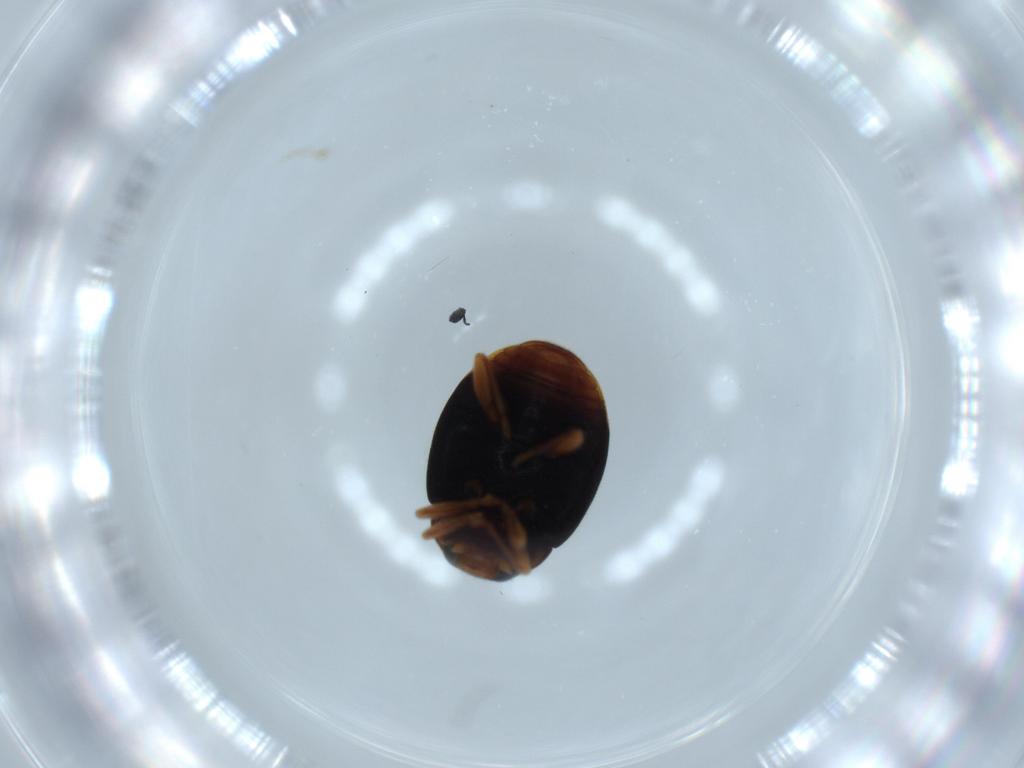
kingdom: Animalia
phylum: Arthropoda
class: Insecta
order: Coleoptera
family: Coccinellidae
